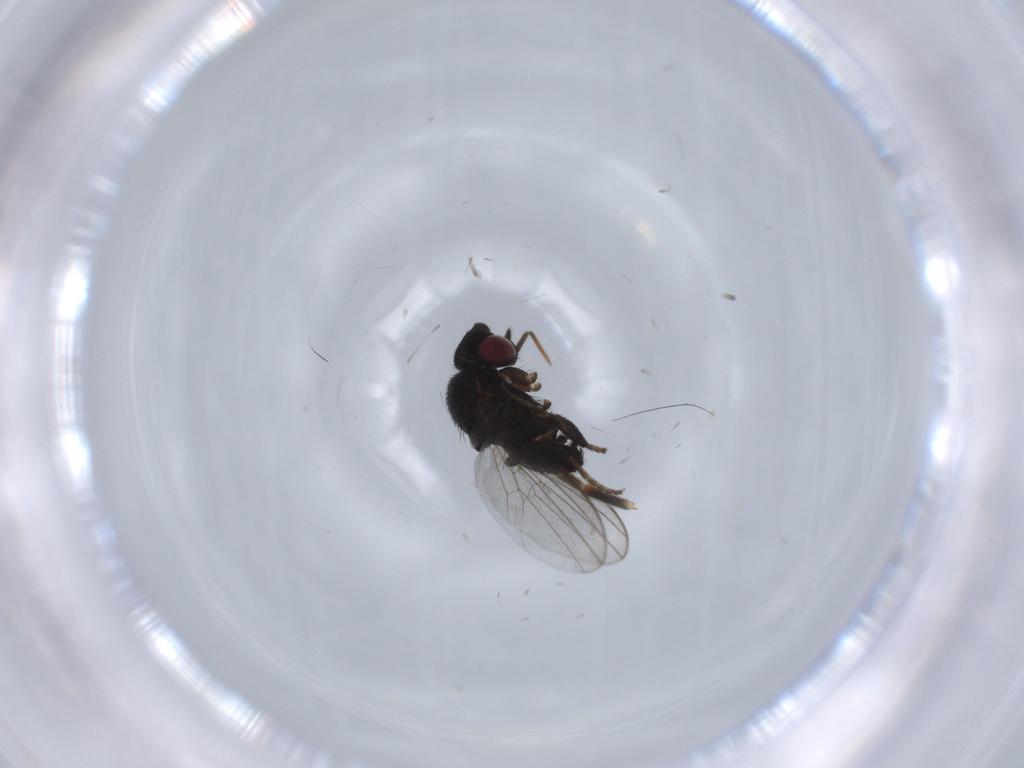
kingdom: Animalia
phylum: Arthropoda
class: Insecta
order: Diptera
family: Milichiidae
